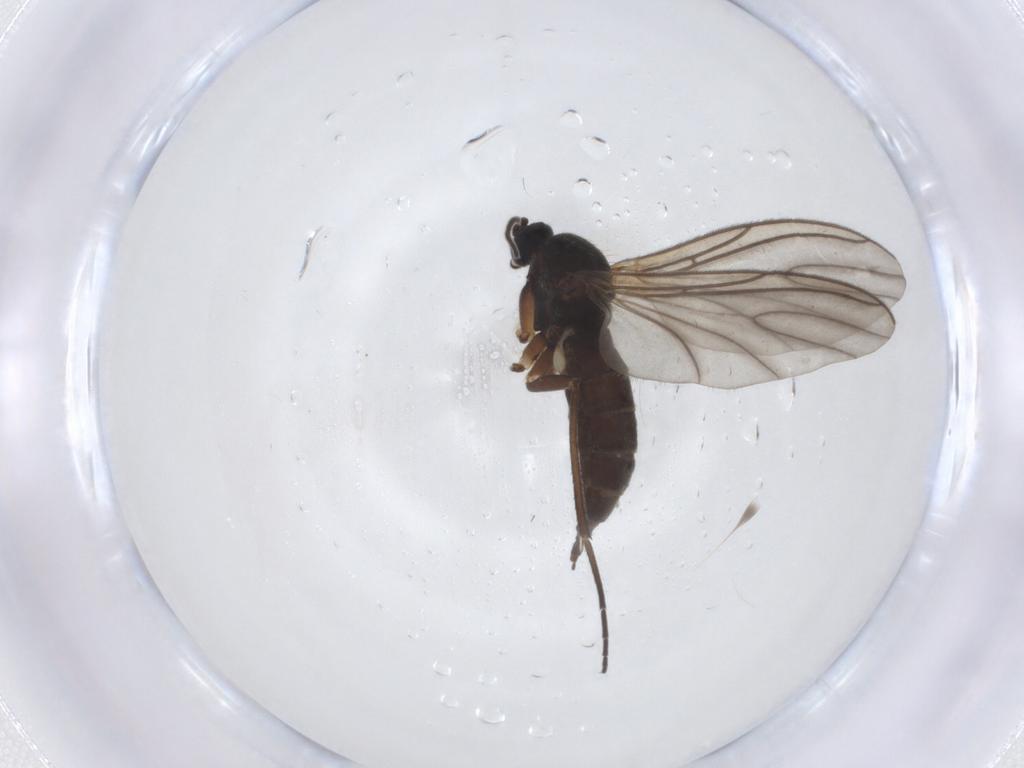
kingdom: Animalia
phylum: Arthropoda
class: Insecta
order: Diptera
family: Sciaridae
